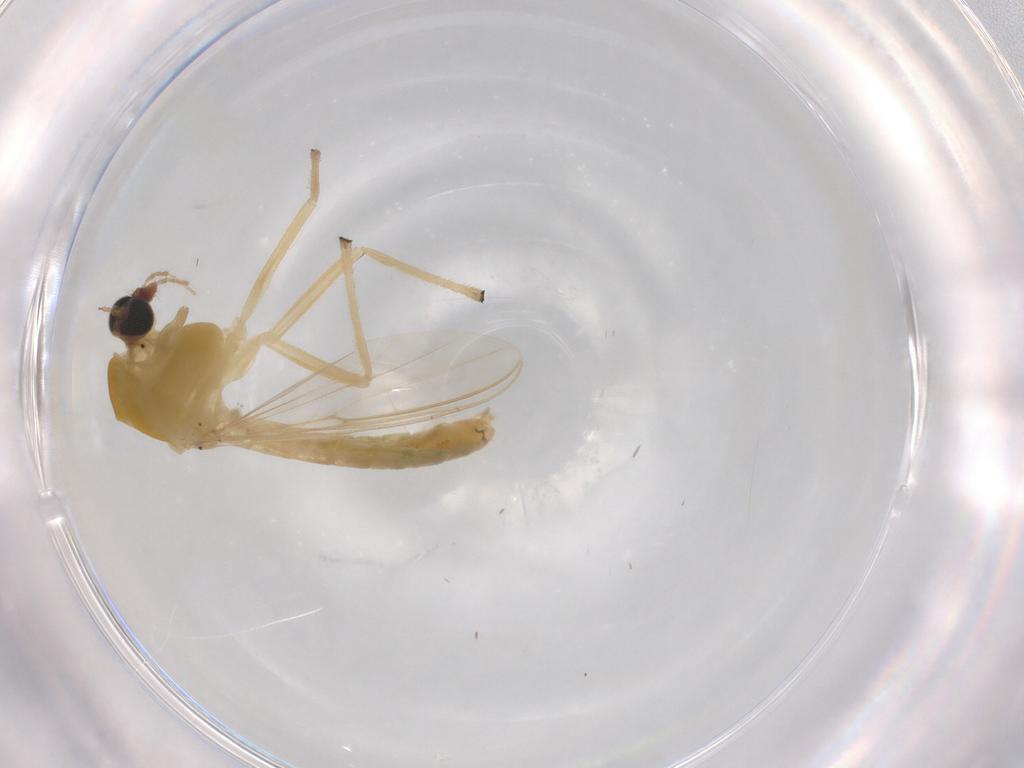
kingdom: Animalia
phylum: Arthropoda
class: Insecta
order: Diptera
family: Chironomidae
